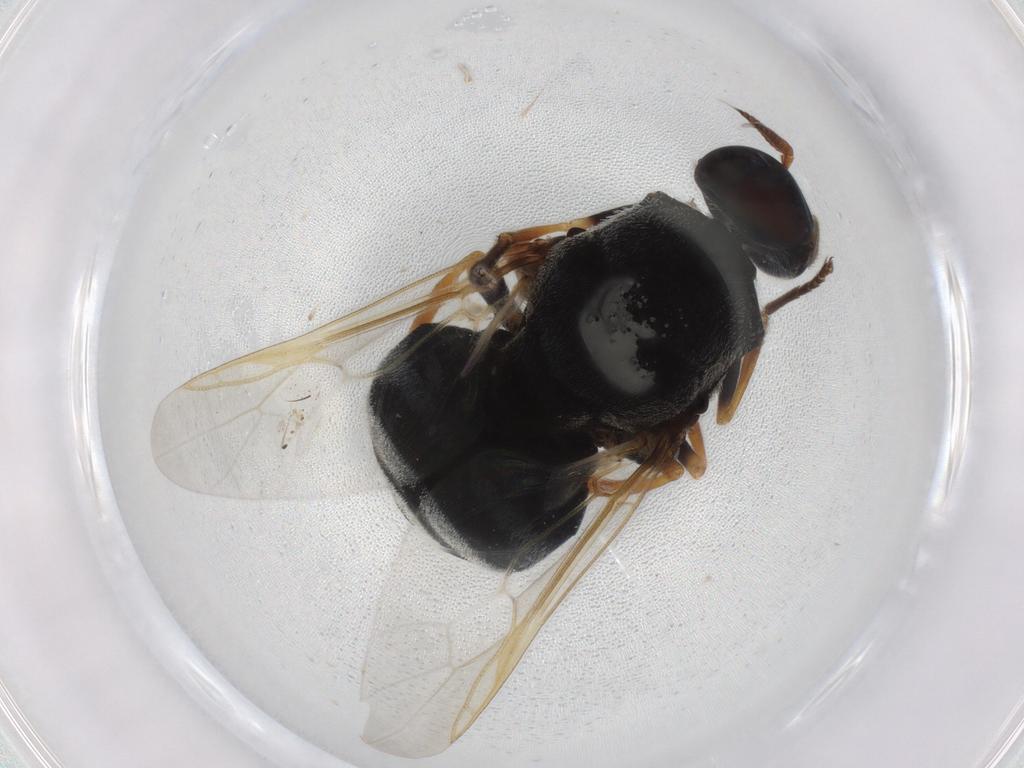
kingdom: Animalia
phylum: Arthropoda
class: Insecta
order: Diptera
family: Stratiomyidae
